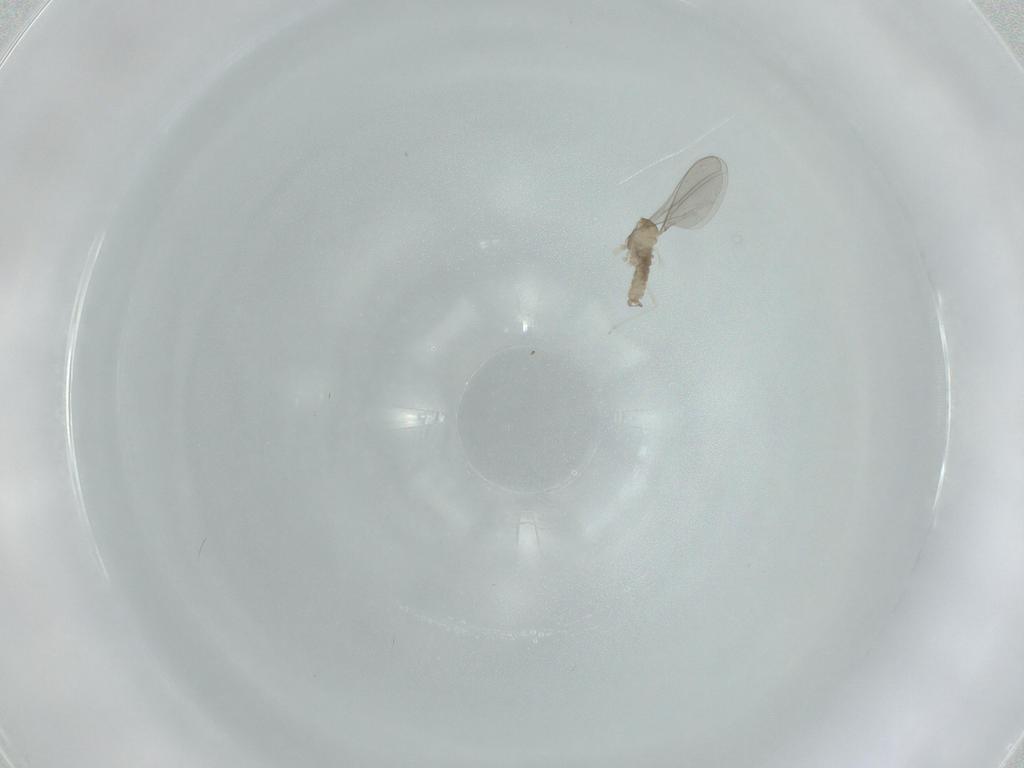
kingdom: Animalia
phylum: Arthropoda
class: Insecta
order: Diptera
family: Cecidomyiidae
